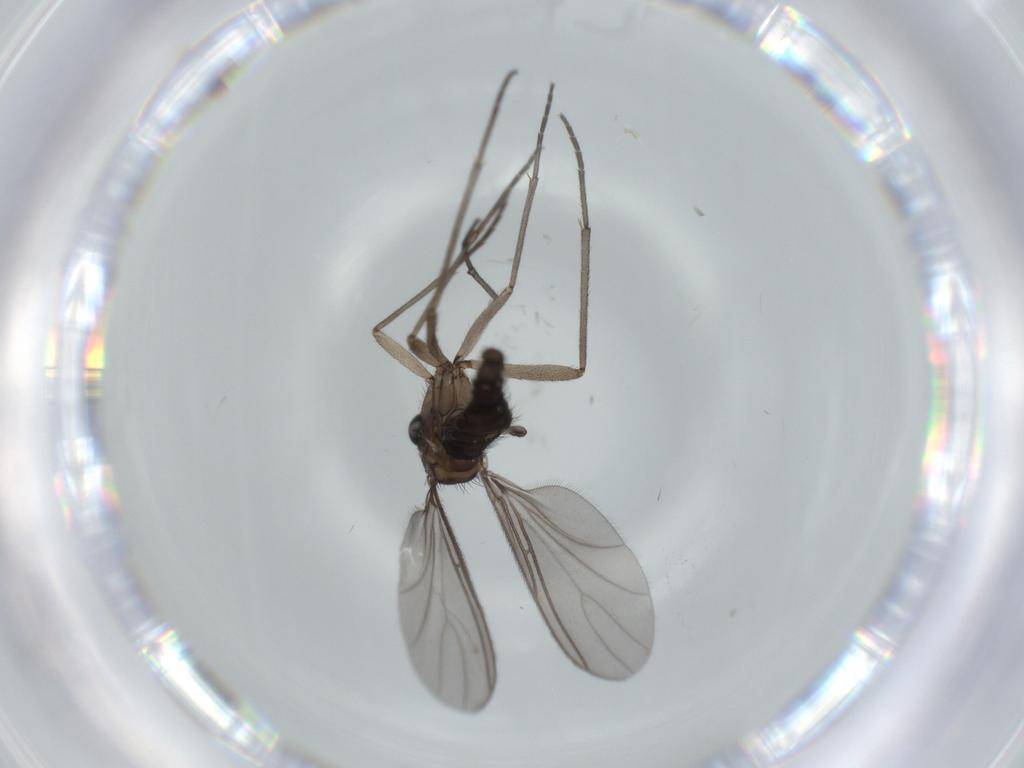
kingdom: Animalia
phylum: Arthropoda
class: Insecta
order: Diptera
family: Sciaridae
